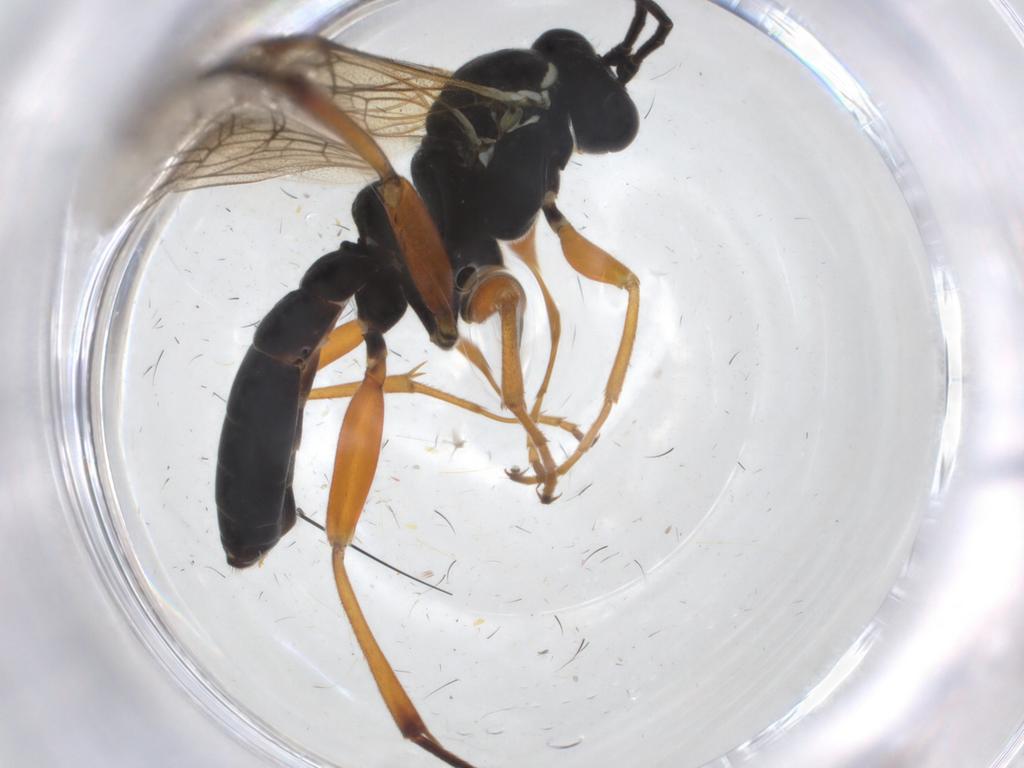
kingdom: Animalia
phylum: Arthropoda
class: Insecta
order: Hymenoptera
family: Ichneumonidae
